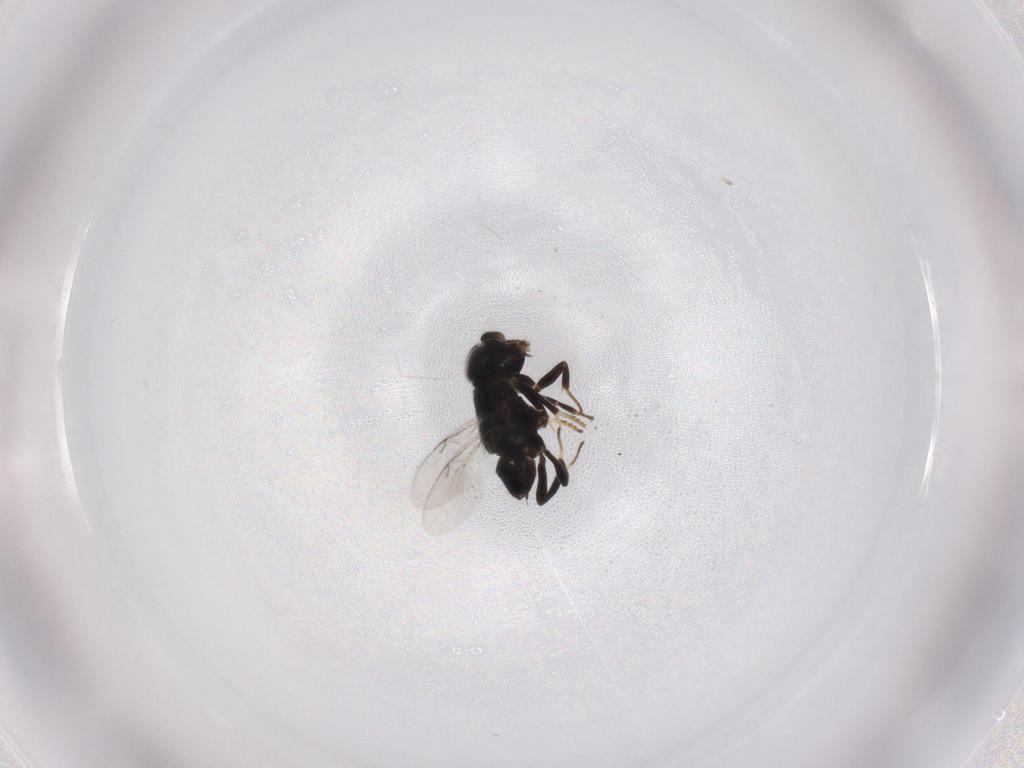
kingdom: Animalia
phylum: Arthropoda
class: Insecta
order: Hymenoptera
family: Encyrtidae
